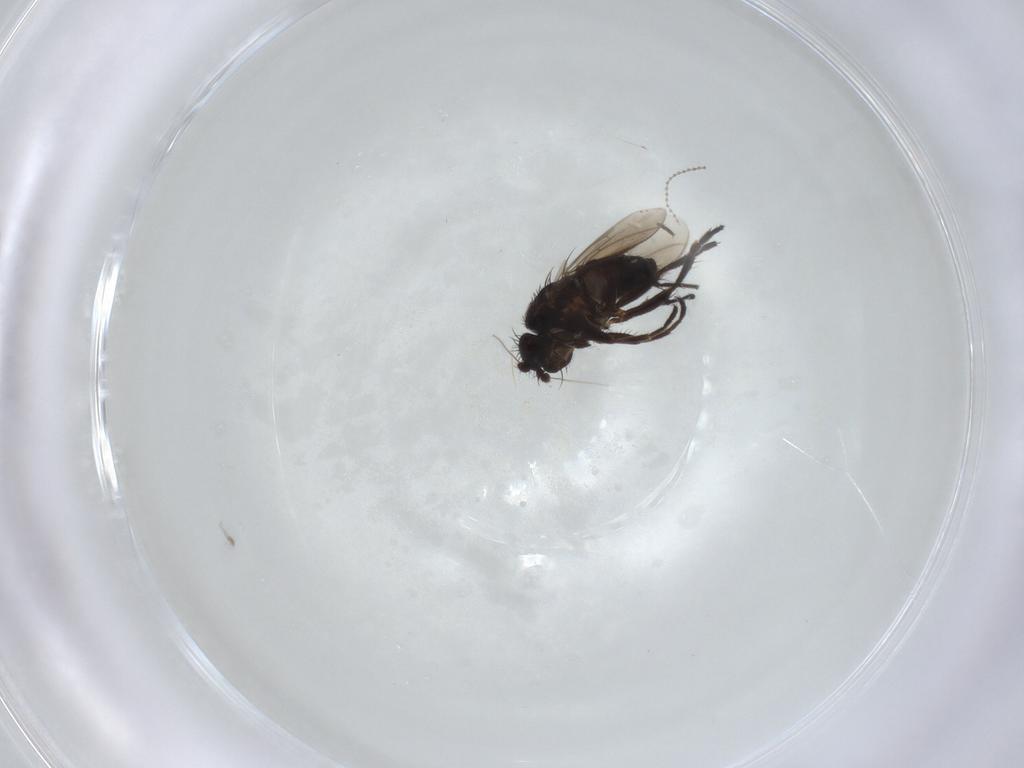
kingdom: Animalia
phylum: Arthropoda
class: Insecta
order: Diptera
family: Sphaeroceridae
